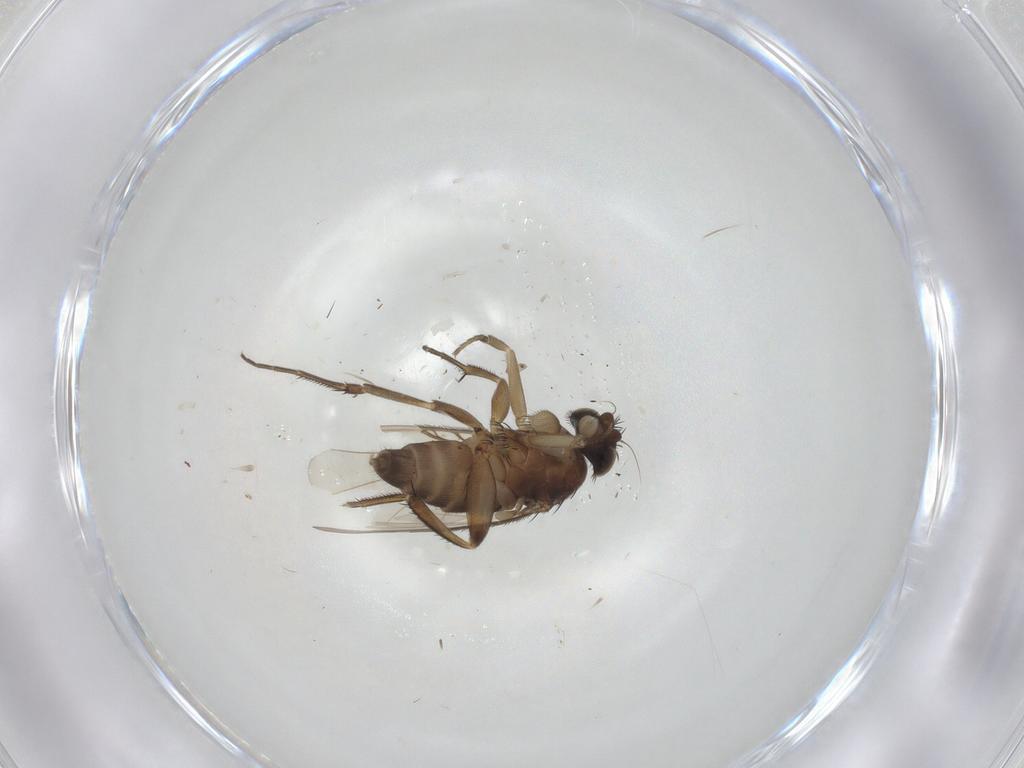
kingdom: Animalia
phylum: Arthropoda
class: Insecta
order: Diptera
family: Phoridae
